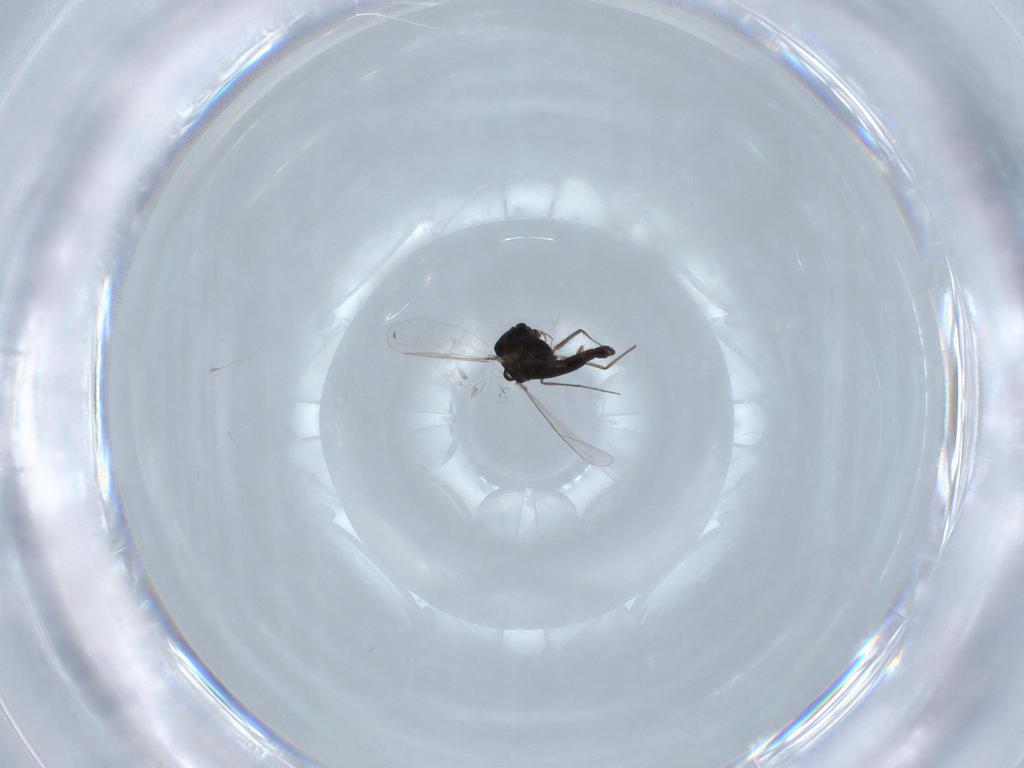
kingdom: Animalia
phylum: Arthropoda
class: Insecta
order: Diptera
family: Chironomidae
